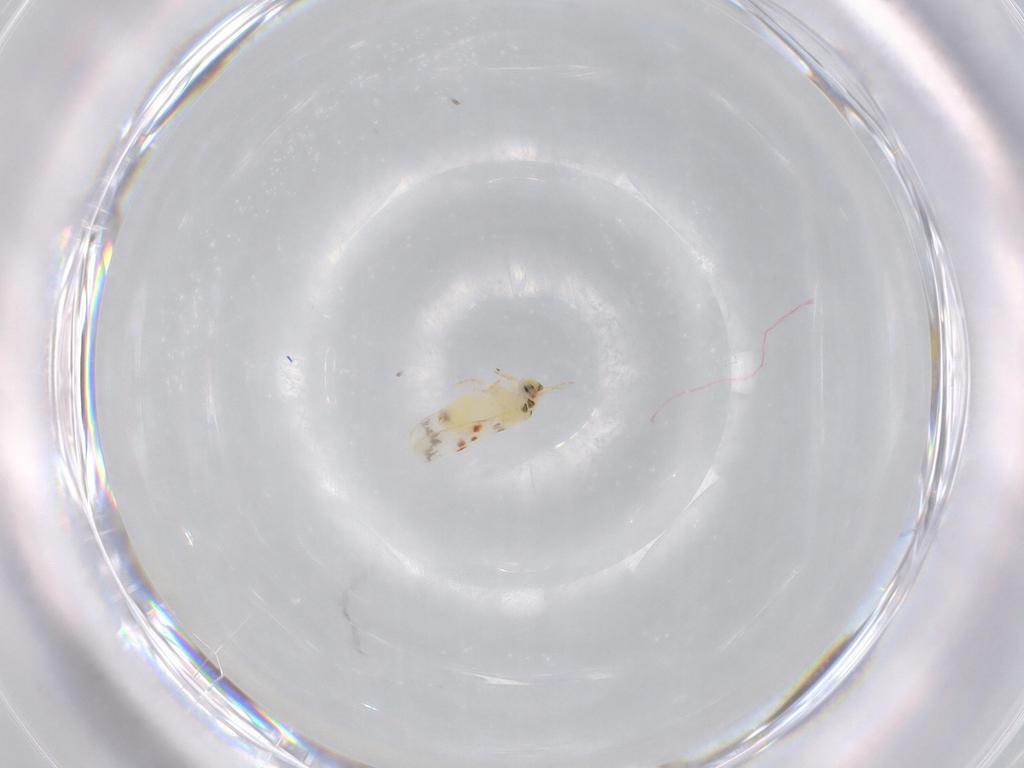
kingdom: Animalia
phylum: Arthropoda
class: Insecta
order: Hemiptera
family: Aleyrodidae
